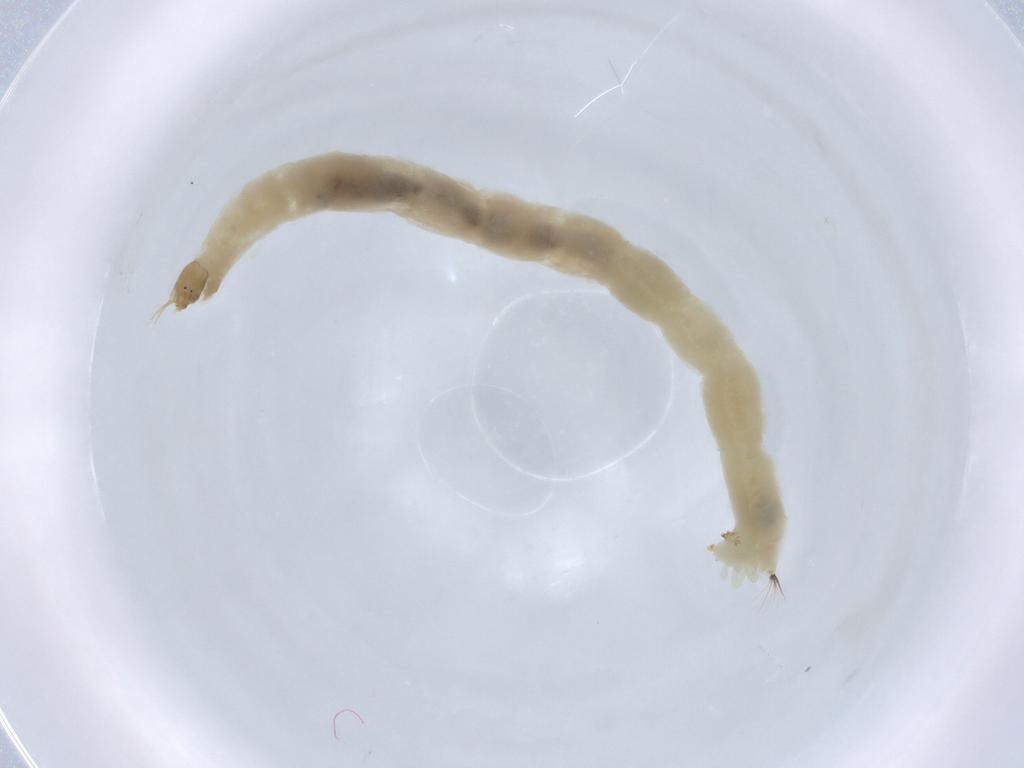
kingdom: Animalia
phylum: Arthropoda
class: Insecta
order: Diptera
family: Chironomidae
